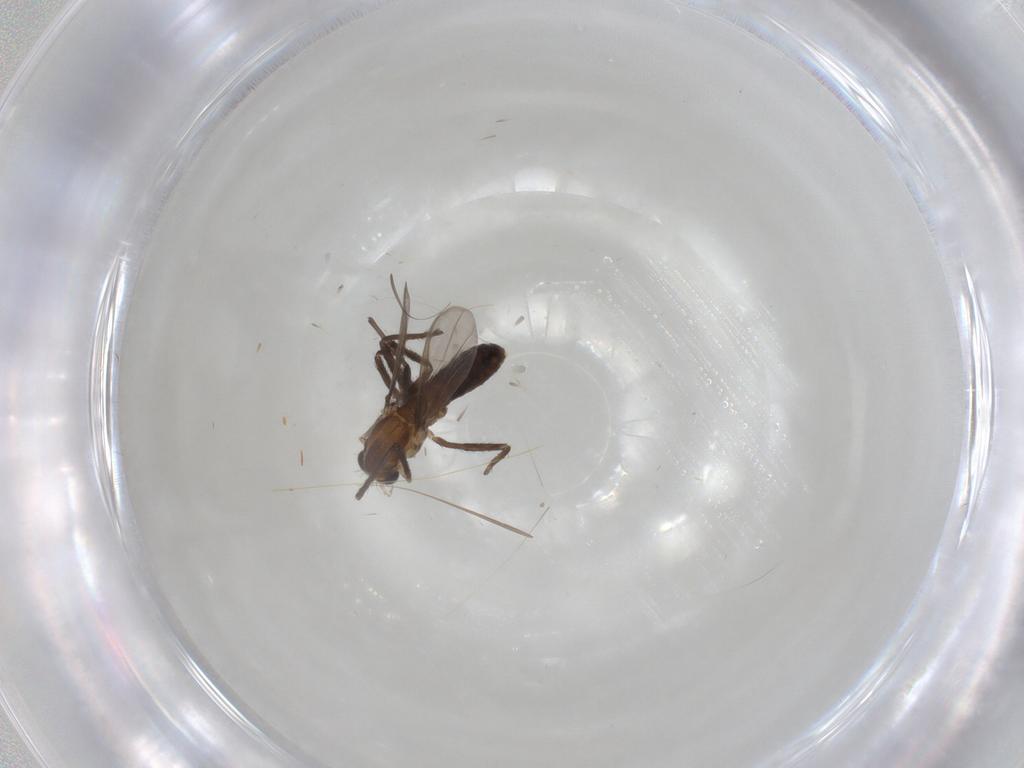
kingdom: Animalia
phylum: Arthropoda
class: Insecta
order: Diptera
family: Chironomidae
